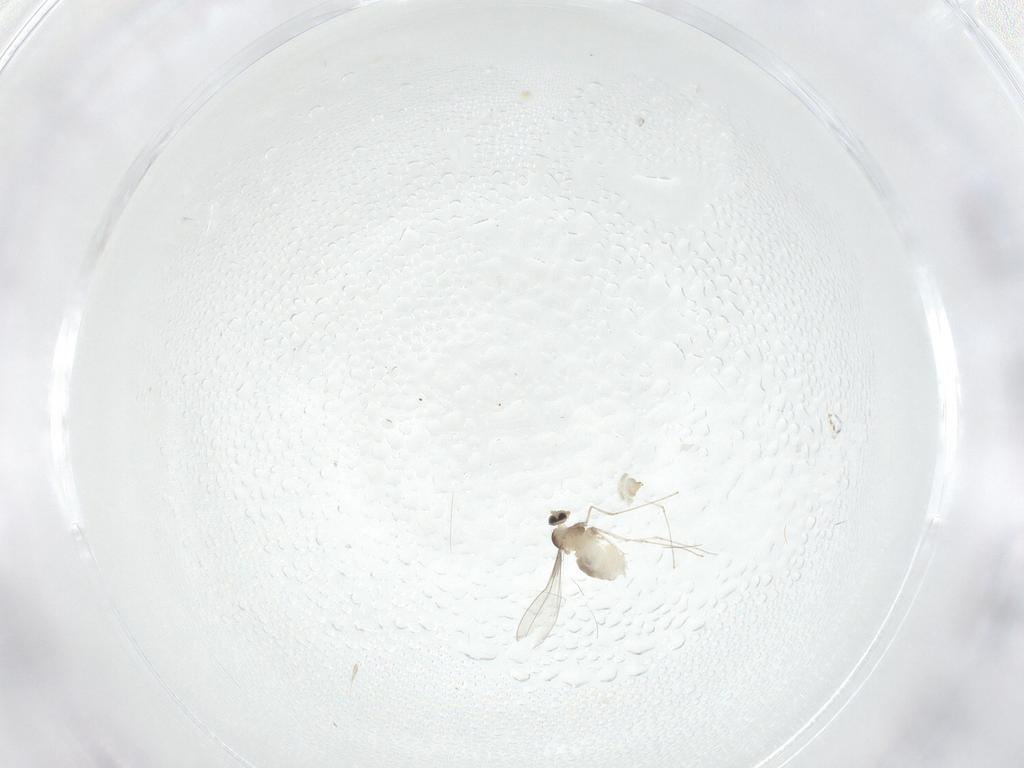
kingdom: Animalia
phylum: Arthropoda
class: Insecta
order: Diptera
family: Cecidomyiidae
